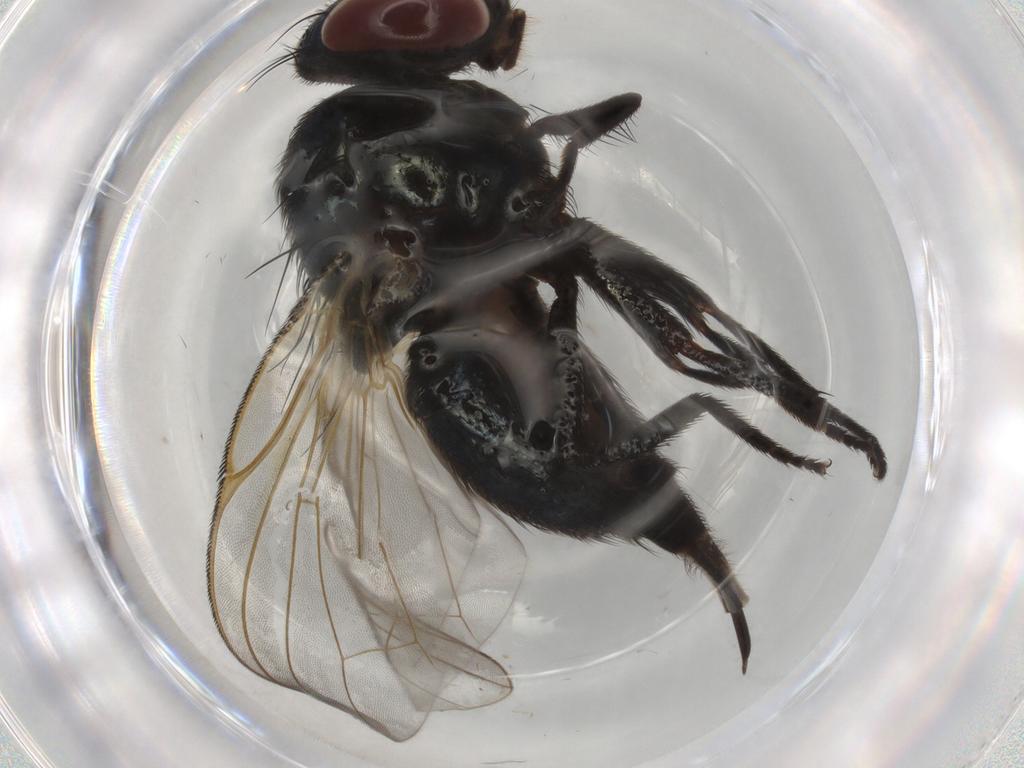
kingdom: Animalia
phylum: Arthropoda
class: Insecta
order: Diptera
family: Lonchaeidae
